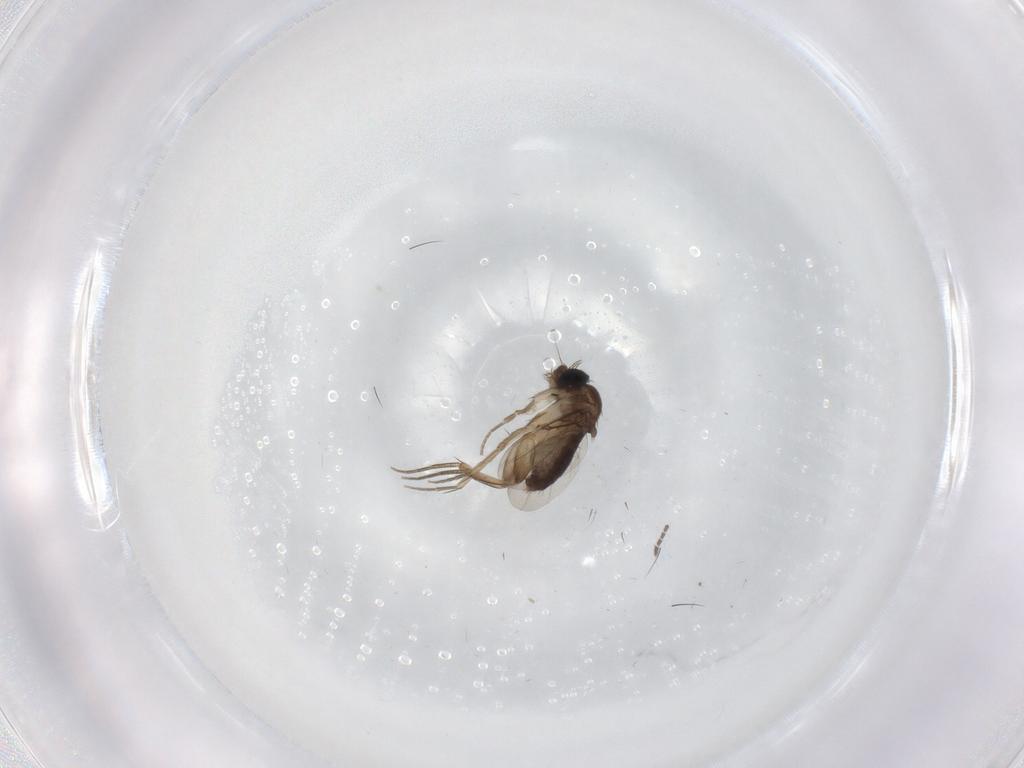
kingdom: Animalia
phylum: Arthropoda
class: Insecta
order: Diptera
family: Phoridae
